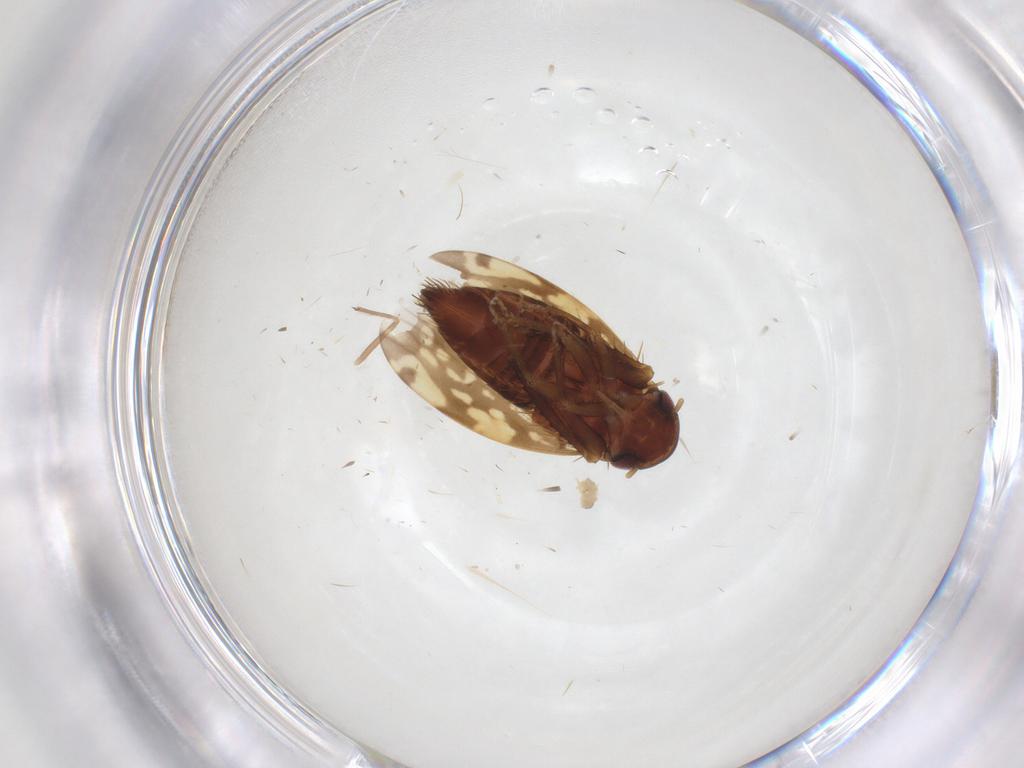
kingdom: Animalia
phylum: Arthropoda
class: Insecta
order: Hemiptera
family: Cicadellidae
